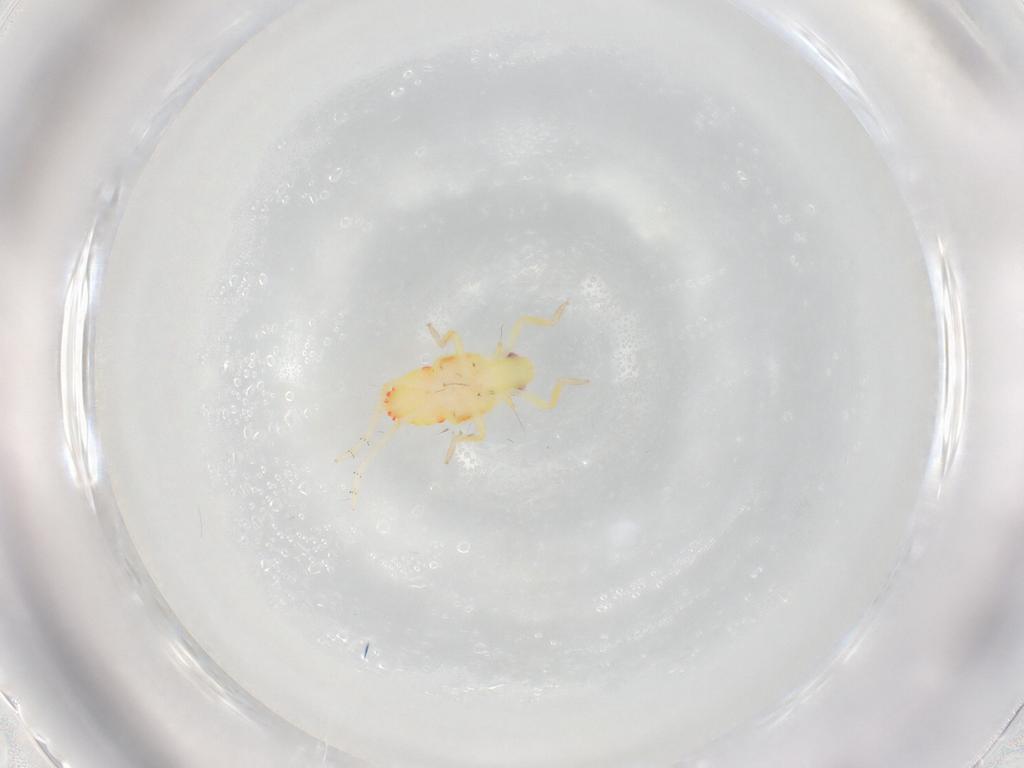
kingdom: Animalia
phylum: Arthropoda
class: Insecta
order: Hemiptera
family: Tropiduchidae
